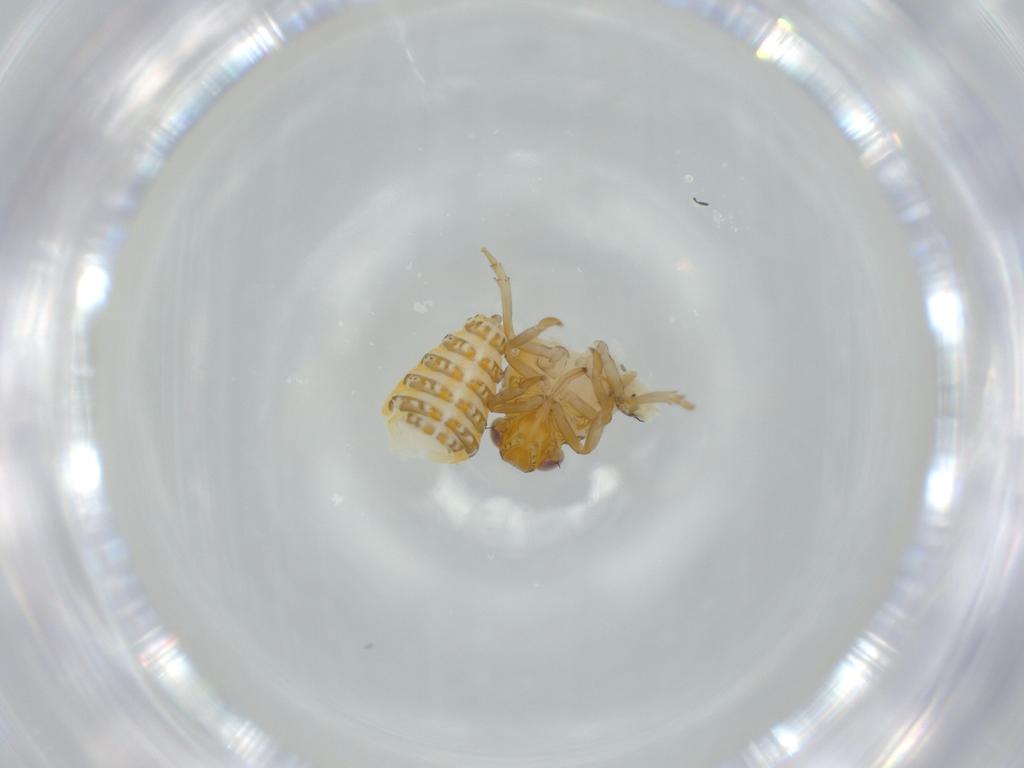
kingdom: Animalia
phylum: Arthropoda
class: Insecta
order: Hemiptera
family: Issidae
